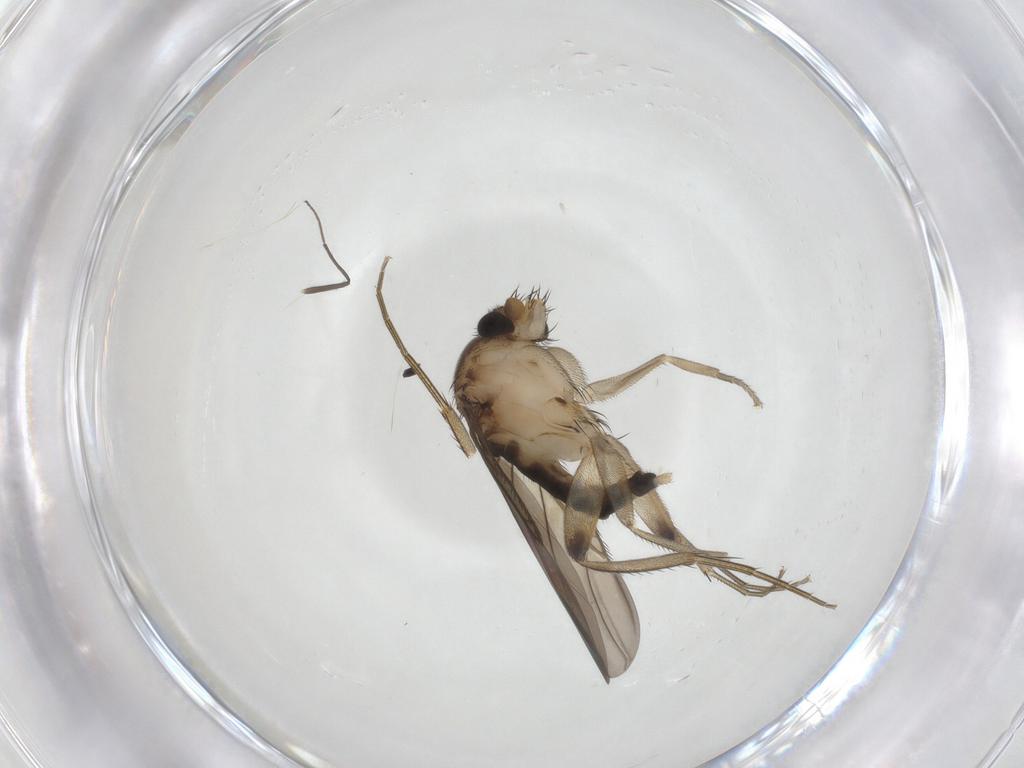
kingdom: Animalia
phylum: Arthropoda
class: Insecta
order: Diptera
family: Phoridae
